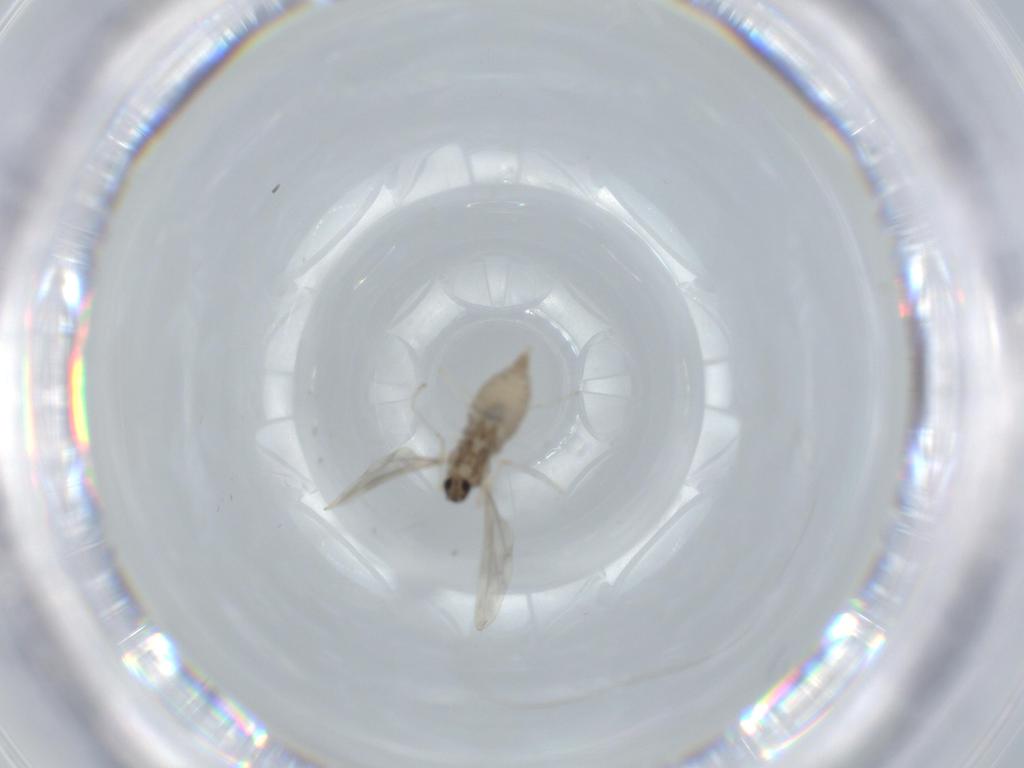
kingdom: Animalia
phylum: Arthropoda
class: Insecta
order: Diptera
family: Cecidomyiidae
